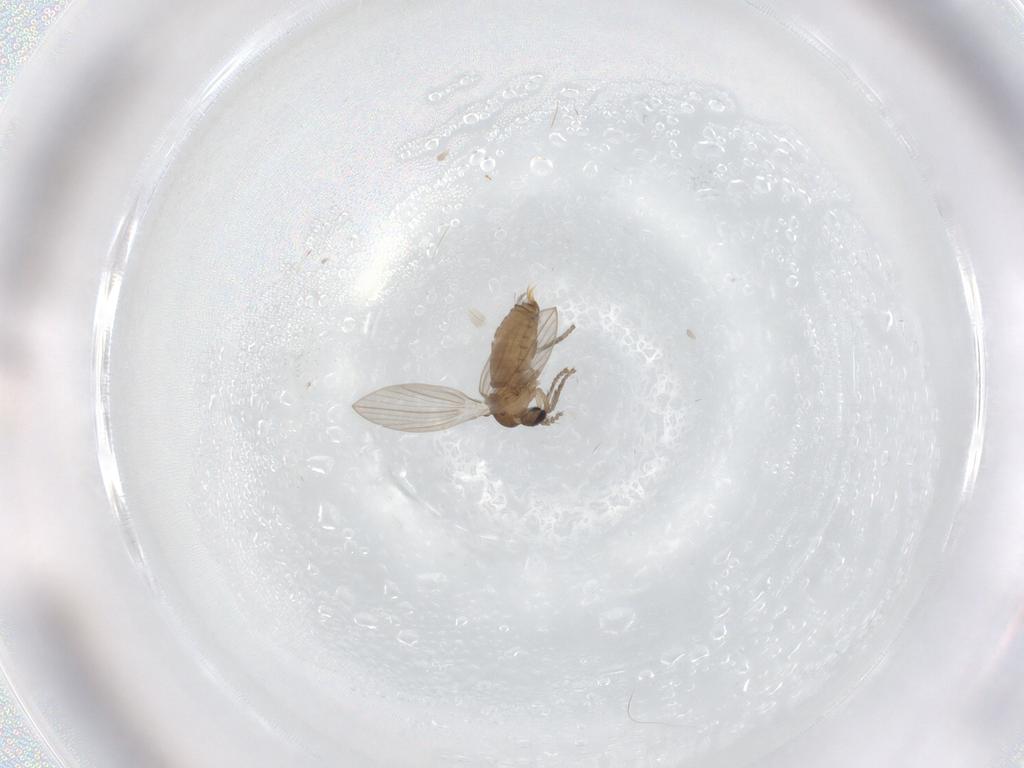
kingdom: Animalia
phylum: Arthropoda
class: Insecta
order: Diptera
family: Psychodidae
